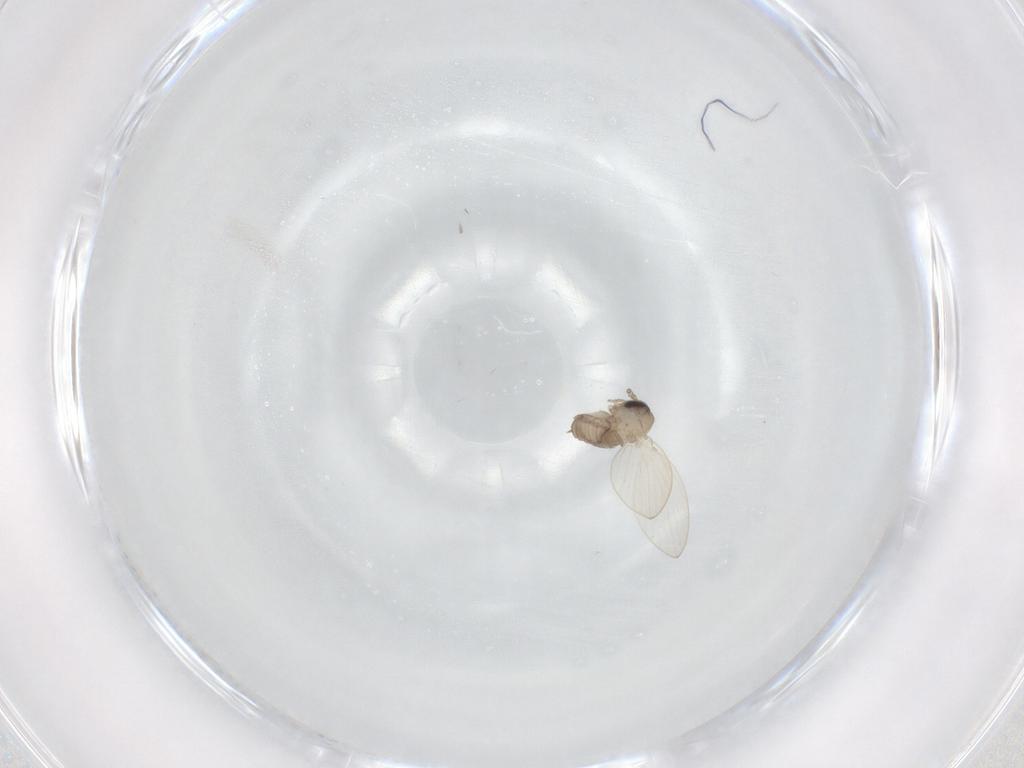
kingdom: Animalia
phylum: Arthropoda
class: Insecta
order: Diptera
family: Psychodidae
